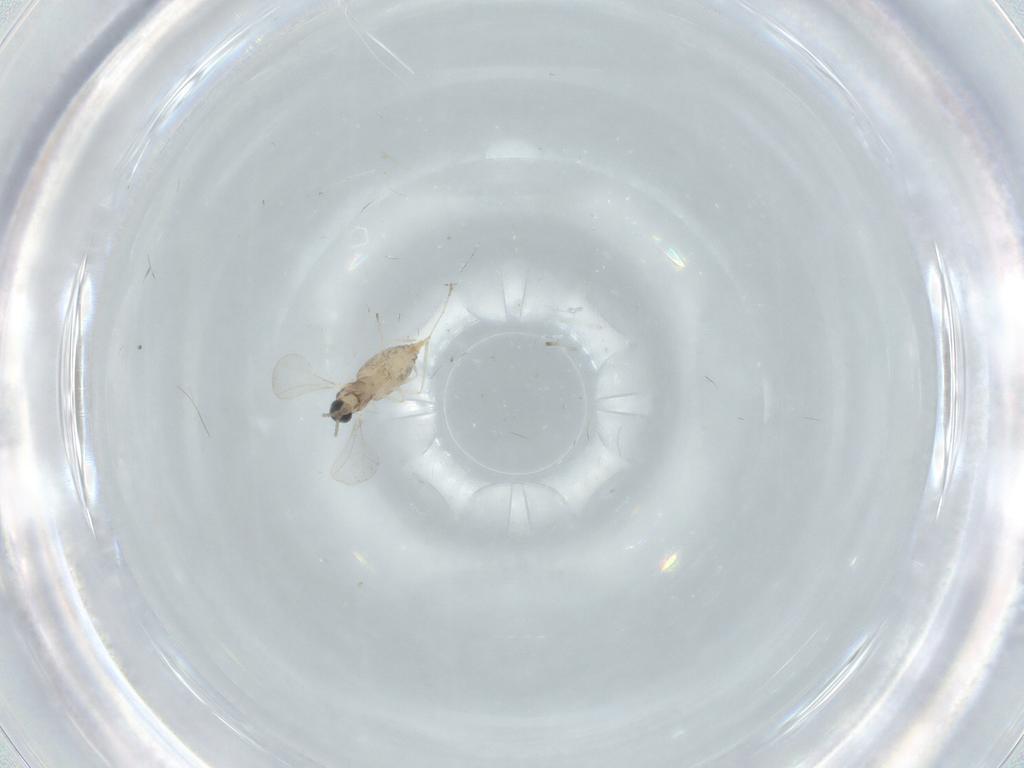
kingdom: Animalia
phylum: Arthropoda
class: Insecta
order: Diptera
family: Cecidomyiidae
